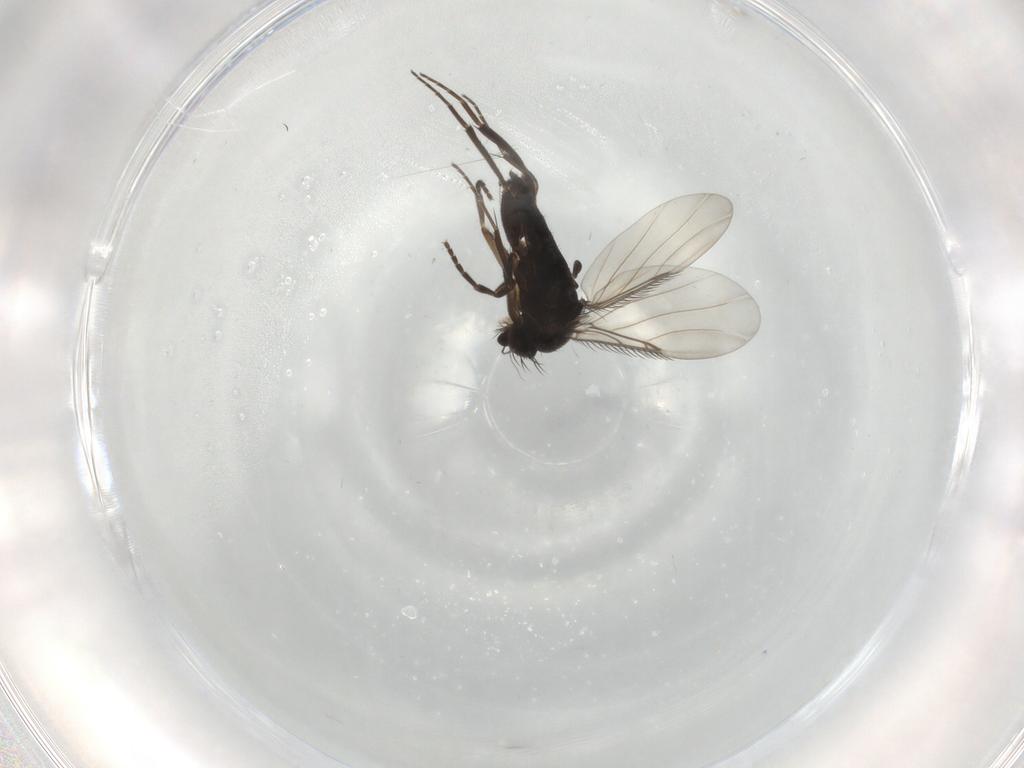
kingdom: Animalia
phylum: Arthropoda
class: Insecta
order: Diptera
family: Phoridae
